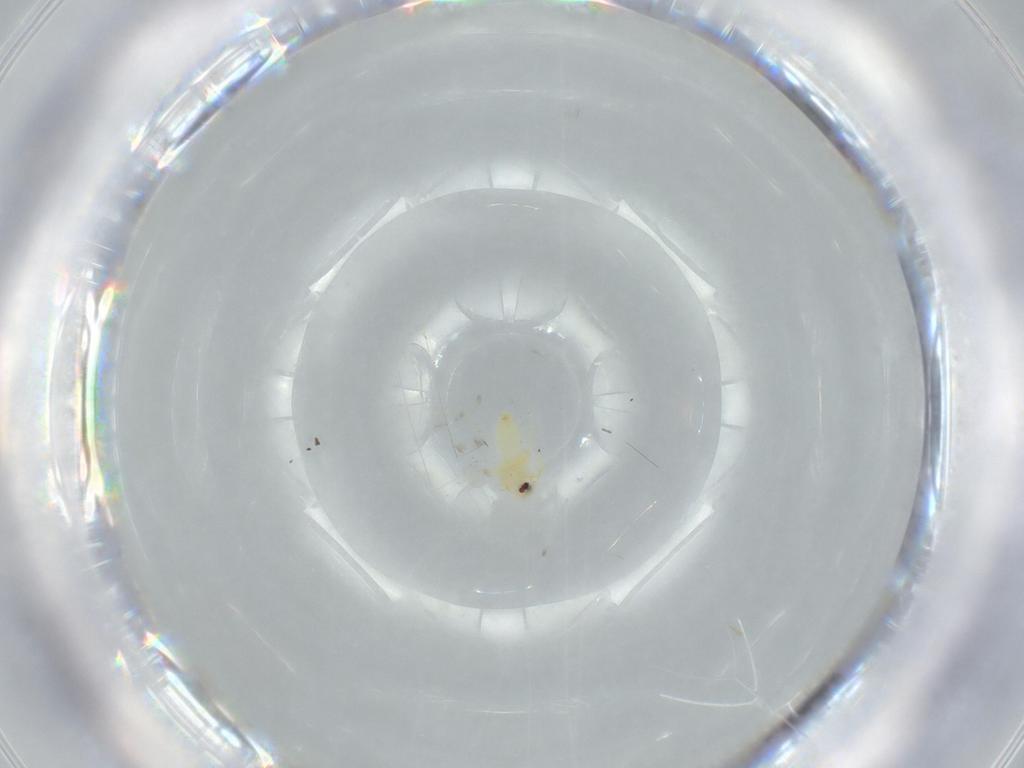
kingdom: Animalia
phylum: Arthropoda
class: Insecta
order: Hemiptera
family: Aleyrodidae
